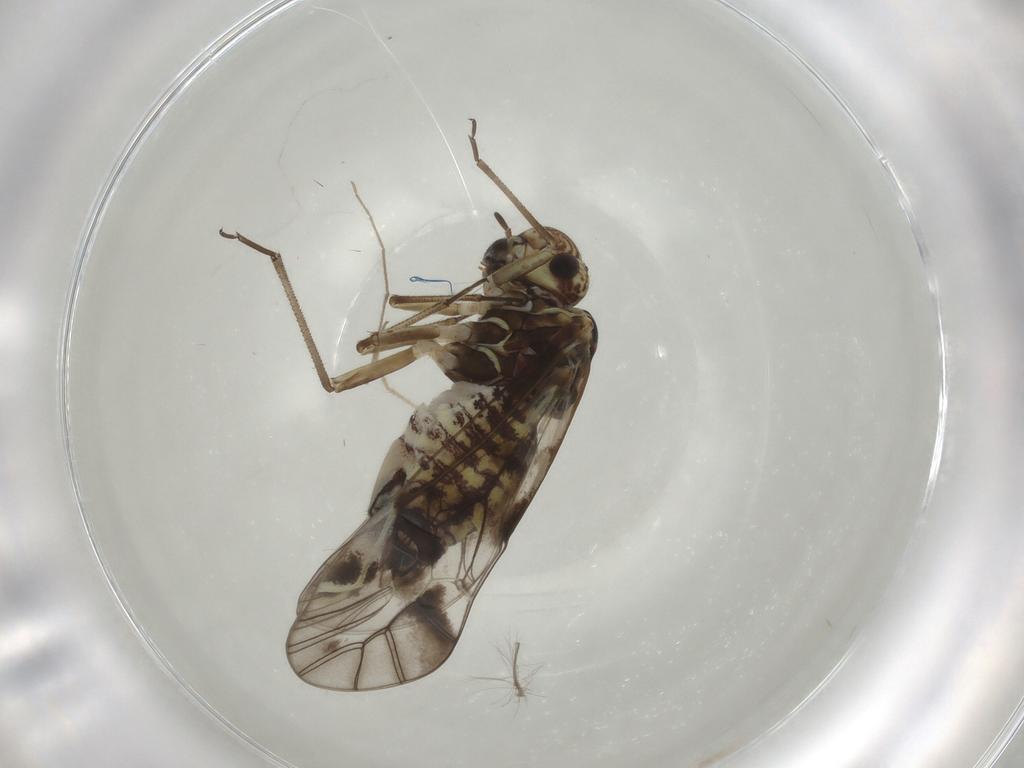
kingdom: Animalia
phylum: Arthropoda
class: Insecta
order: Psocodea
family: Psocidae
